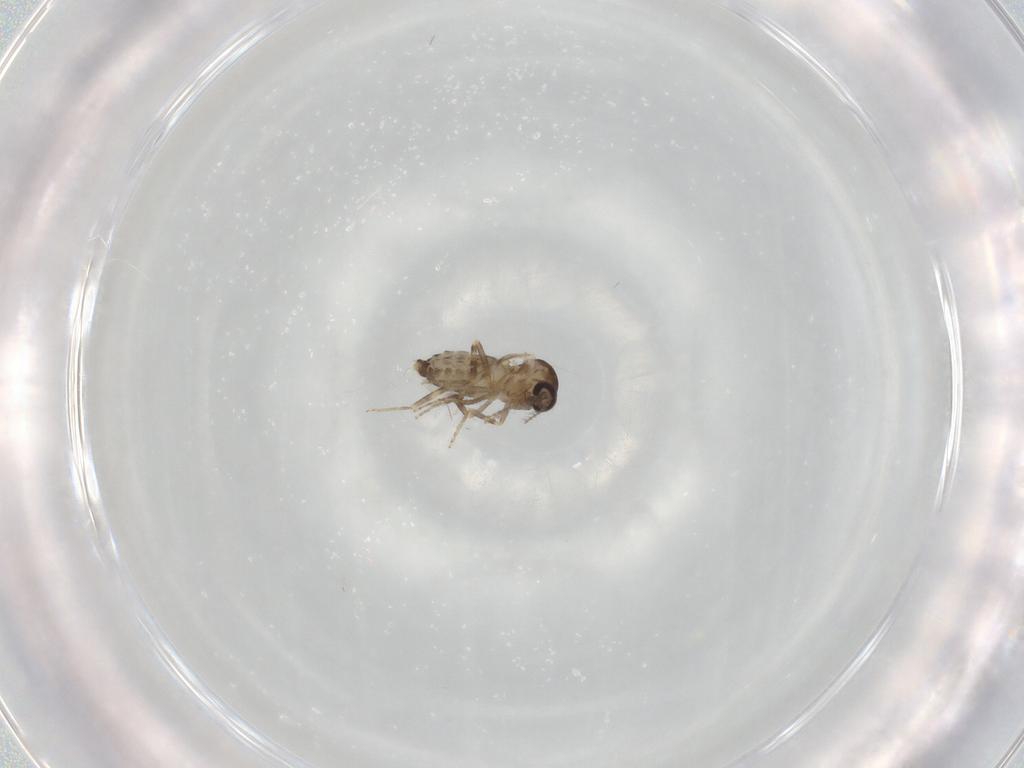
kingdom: Animalia
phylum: Arthropoda
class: Insecta
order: Diptera
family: Ceratopogonidae
